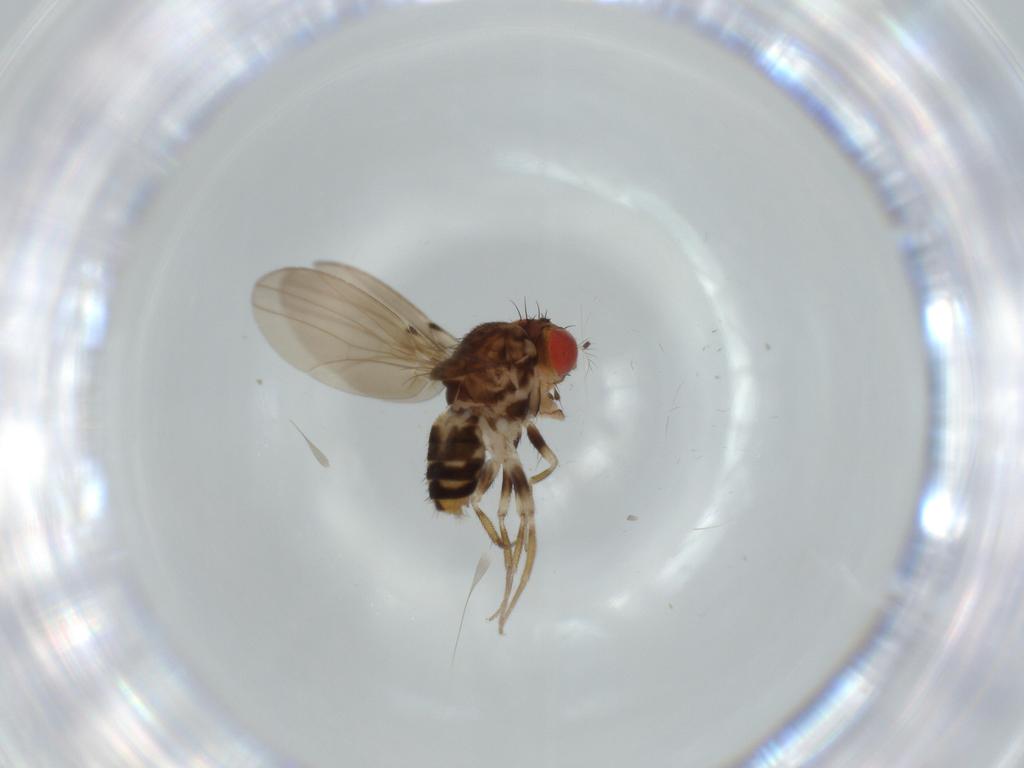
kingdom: Animalia
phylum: Arthropoda
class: Insecta
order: Diptera
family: Drosophilidae
